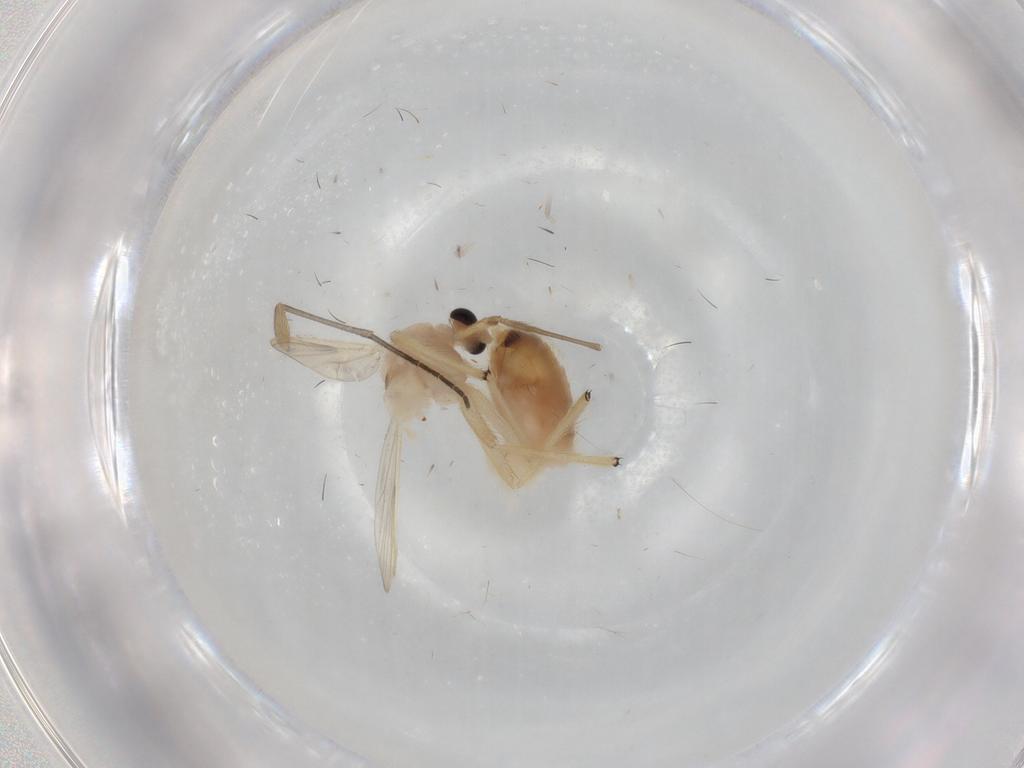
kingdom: Animalia
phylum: Arthropoda
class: Insecta
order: Diptera
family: Chironomidae
